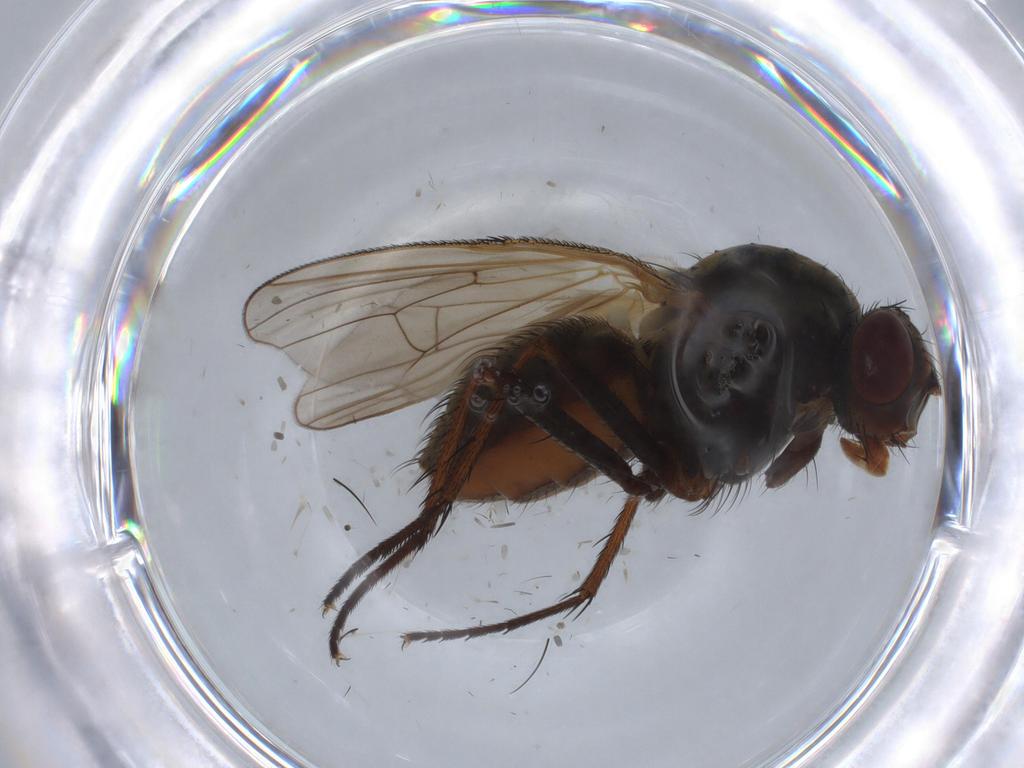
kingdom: Animalia
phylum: Arthropoda
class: Insecta
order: Diptera
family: Anthomyiidae
